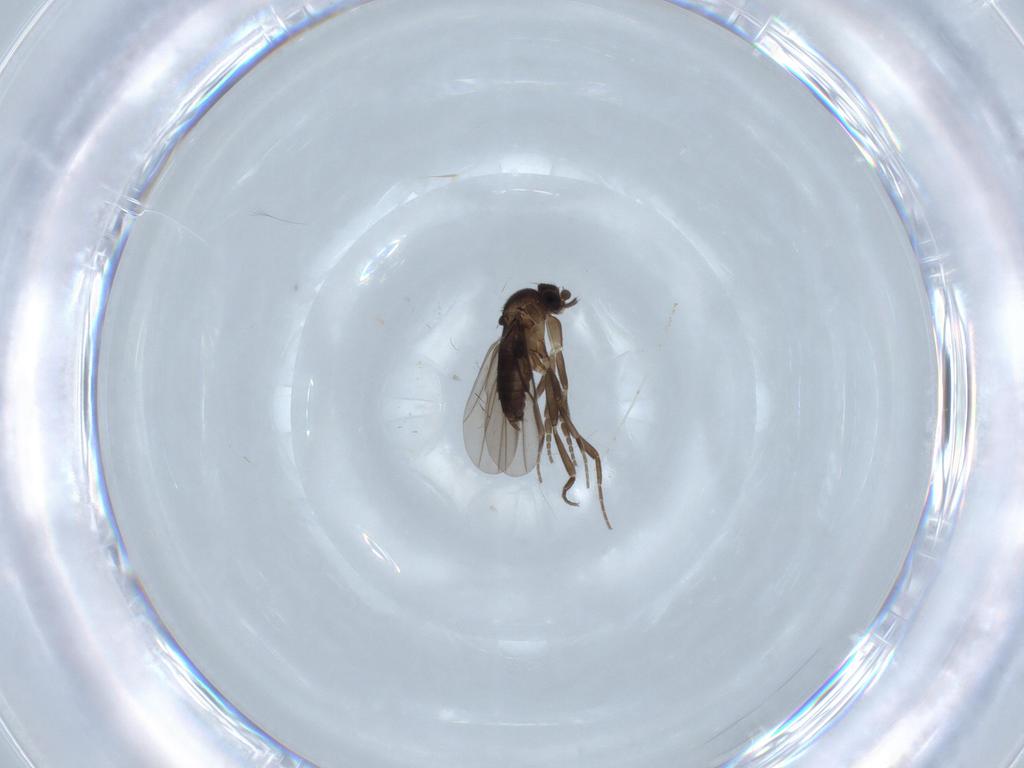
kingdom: Animalia
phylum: Arthropoda
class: Insecta
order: Diptera
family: Phoridae
